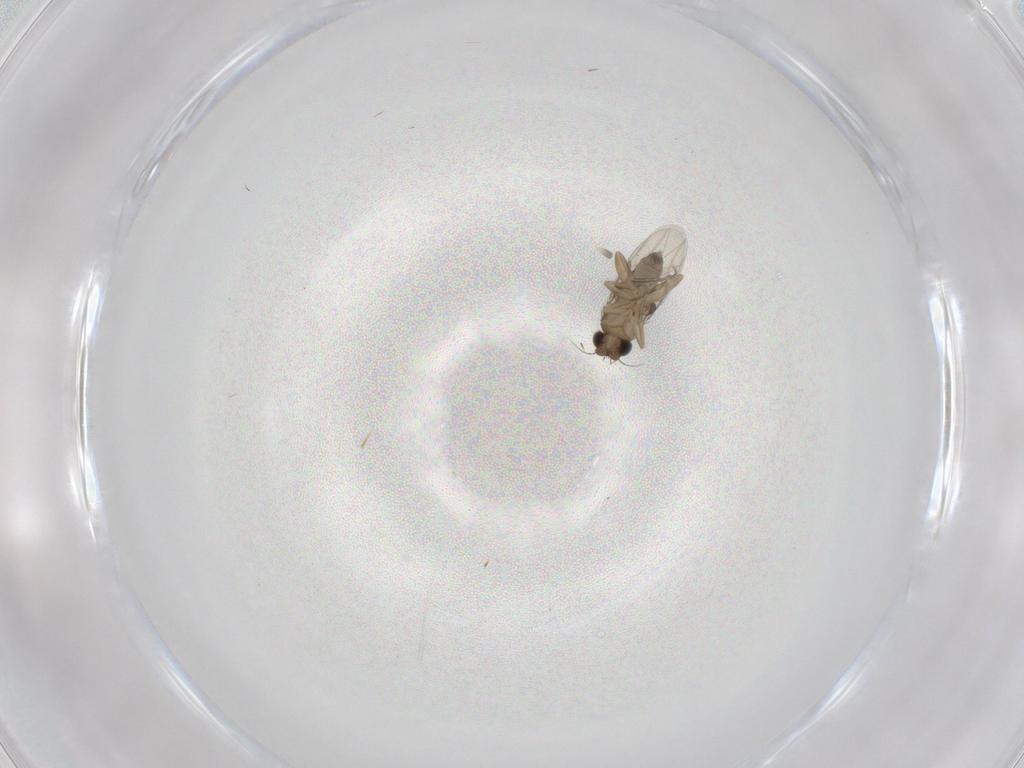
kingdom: Animalia
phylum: Arthropoda
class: Insecta
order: Diptera
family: Phoridae
